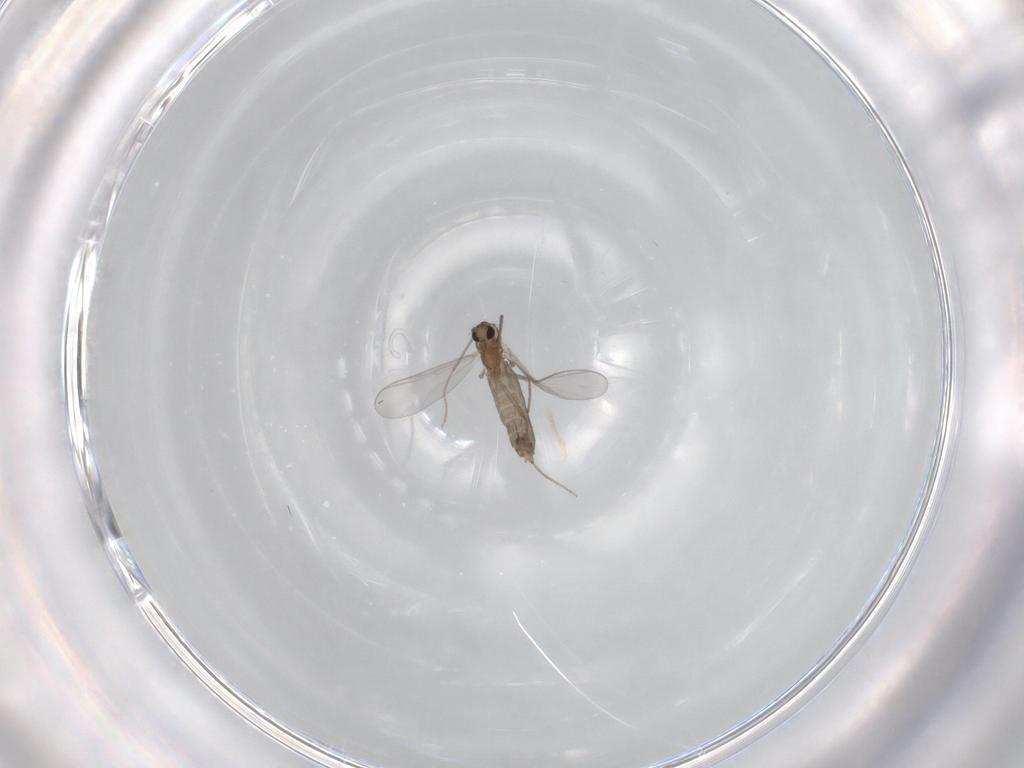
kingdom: Animalia
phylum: Arthropoda
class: Insecta
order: Diptera
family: Chironomidae
